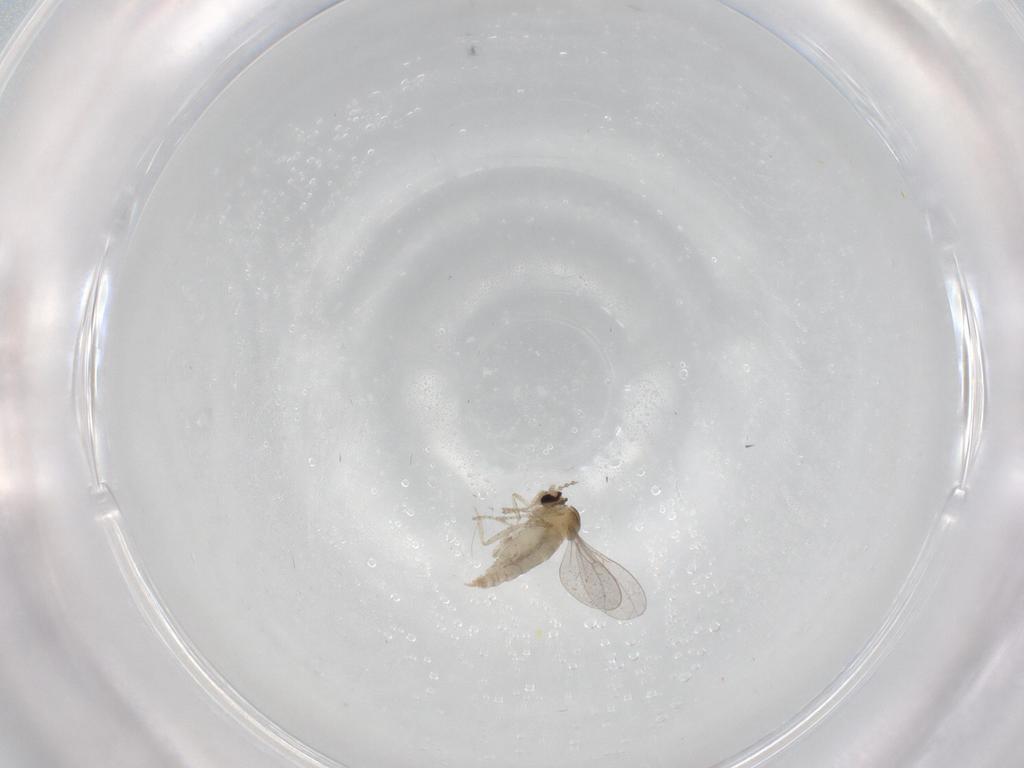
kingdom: Animalia
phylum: Arthropoda
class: Insecta
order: Diptera
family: Cecidomyiidae
